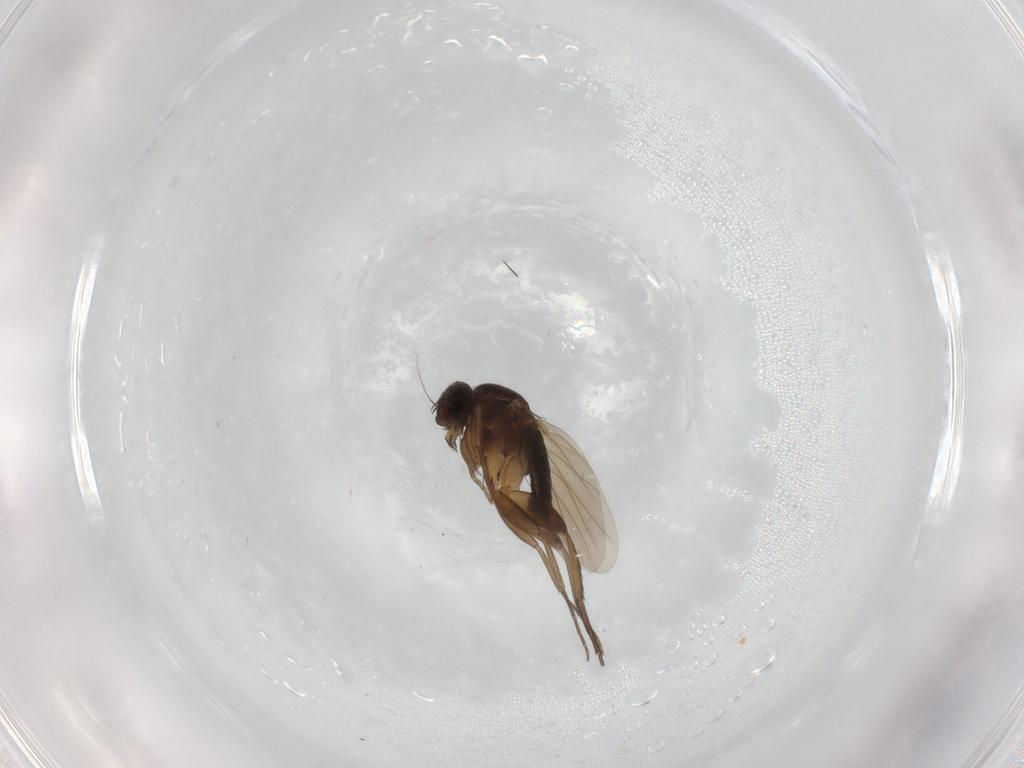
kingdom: Animalia
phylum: Arthropoda
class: Insecta
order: Diptera
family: Phoridae
